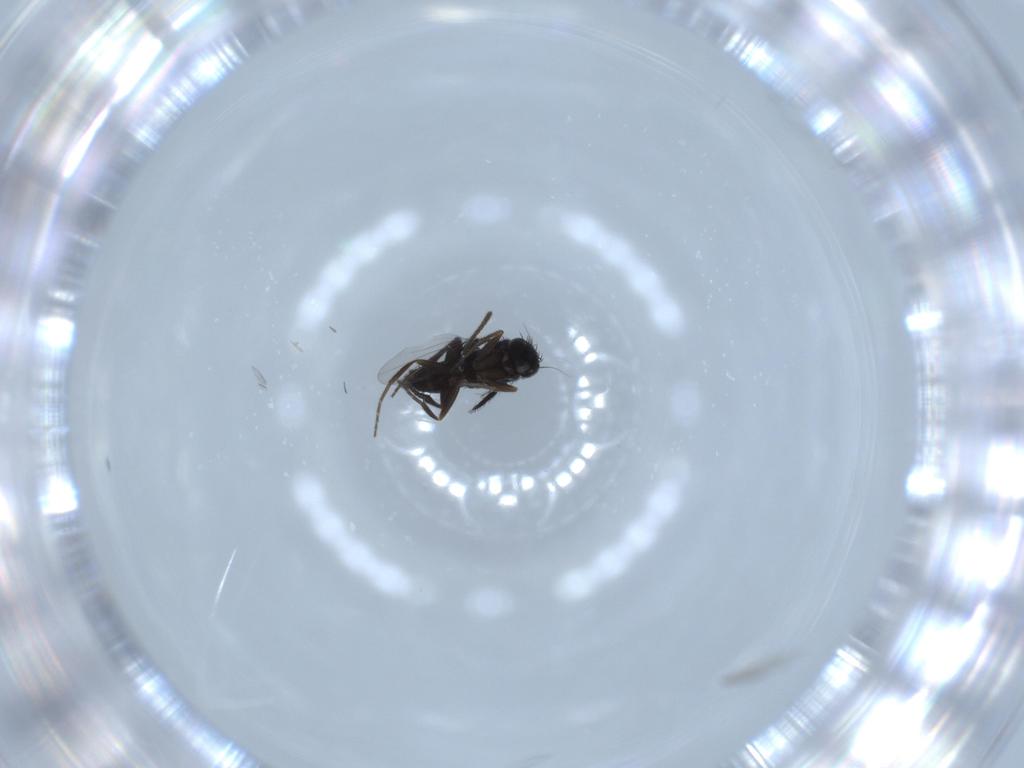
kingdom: Animalia
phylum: Arthropoda
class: Insecta
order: Diptera
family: Phoridae
